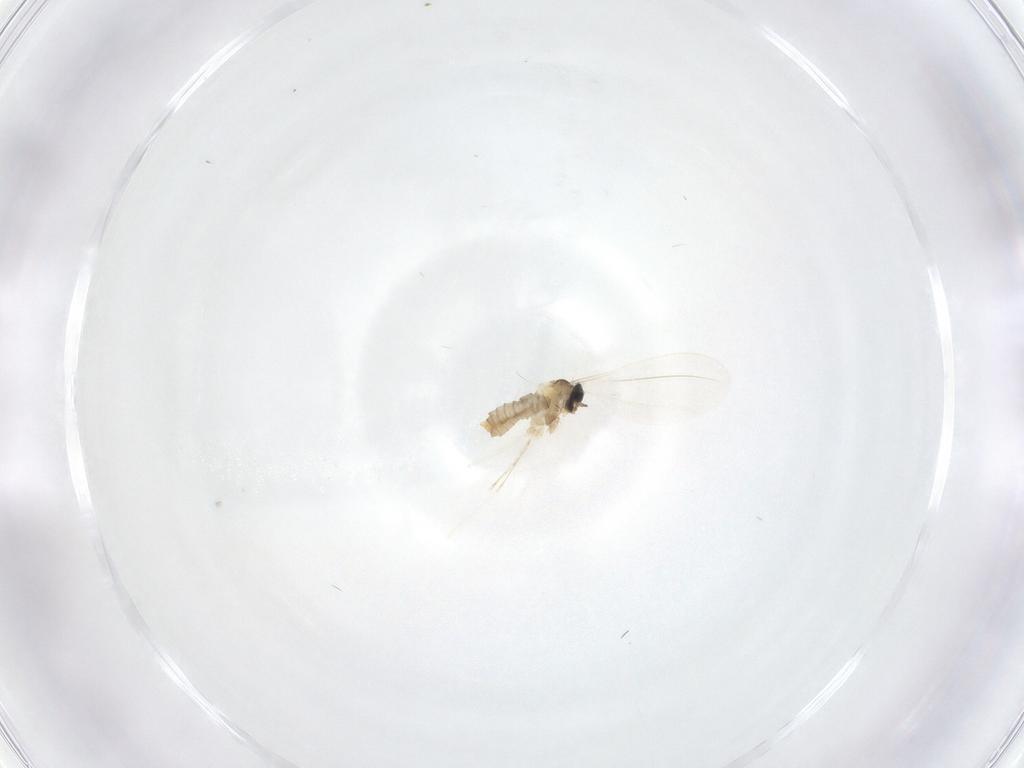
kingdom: Animalia
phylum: Arthropoda
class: Insecta
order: Diptera
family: Cecidomyiidae
